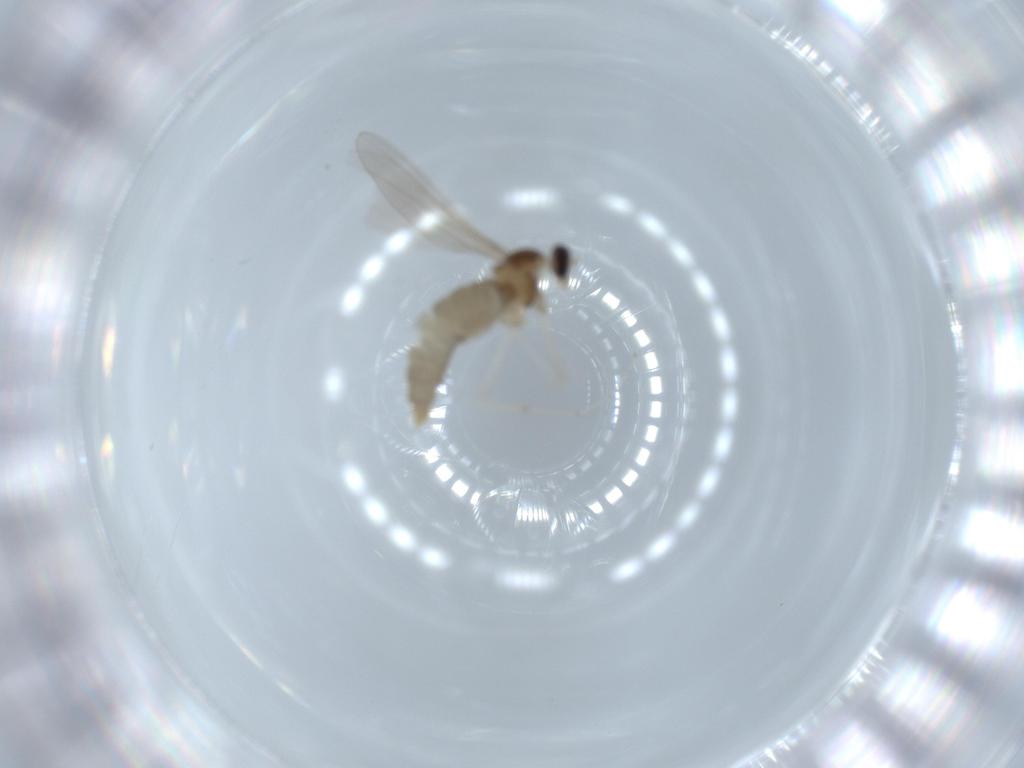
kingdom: Animalia
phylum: Arthropoda
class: Insecta
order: Diptera
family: Cecidomyiidae
